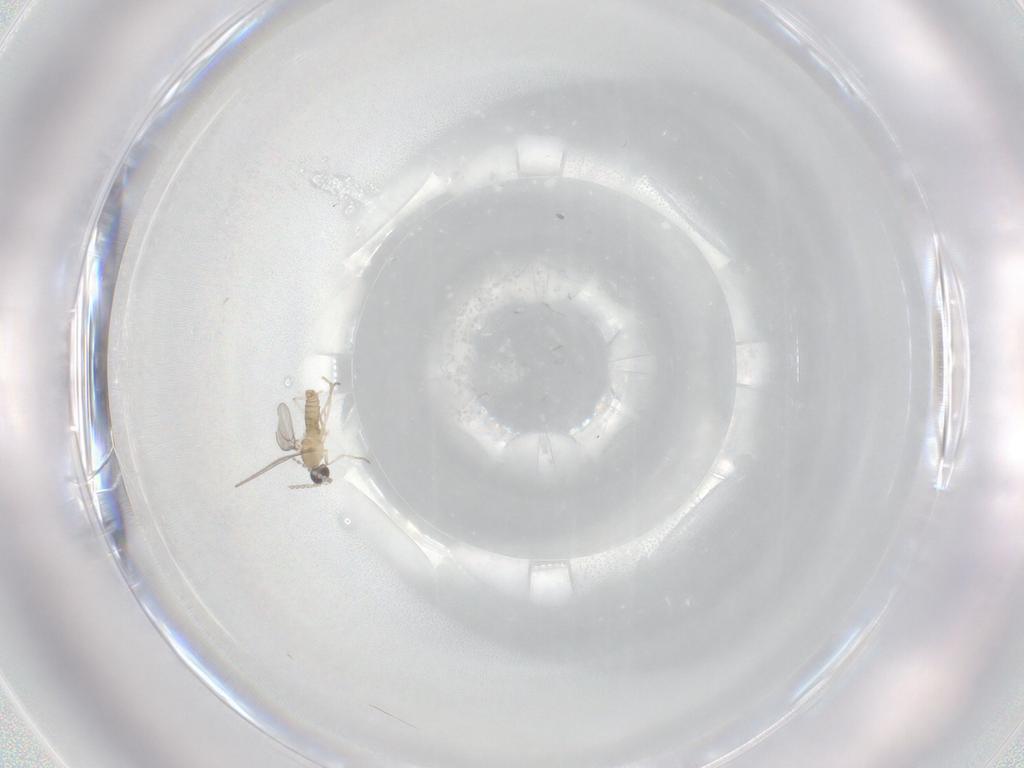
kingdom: Animalia
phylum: Arthropoda
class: Insecta
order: Diptera
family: Cecidomyiidae
